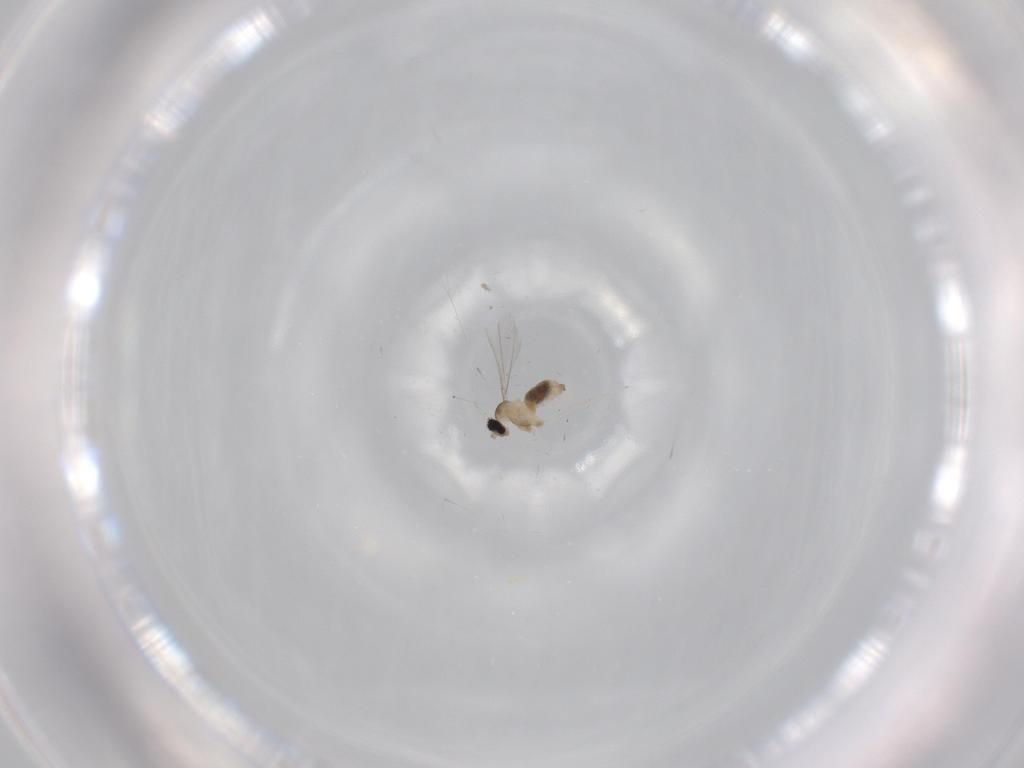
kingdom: Animalia
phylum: Arthropoda
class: Insecta
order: Diptera
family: Cecidomyiidae
